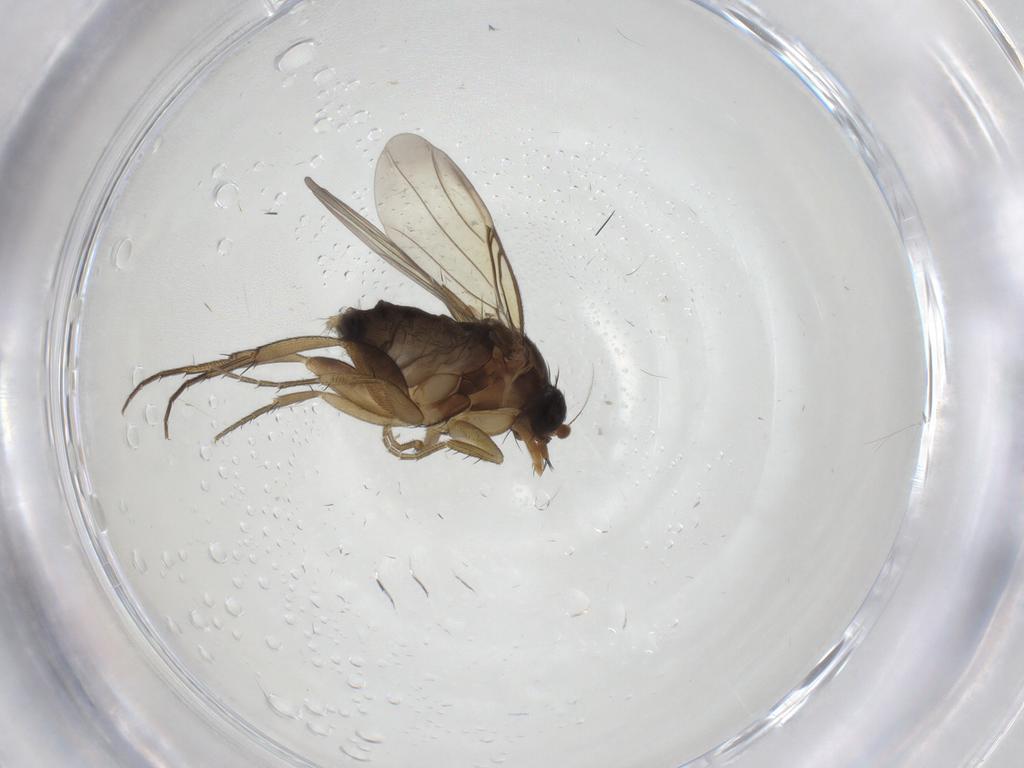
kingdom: Animalia
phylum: Arthropoda
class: Insecta
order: Diptera
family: Phoridae
